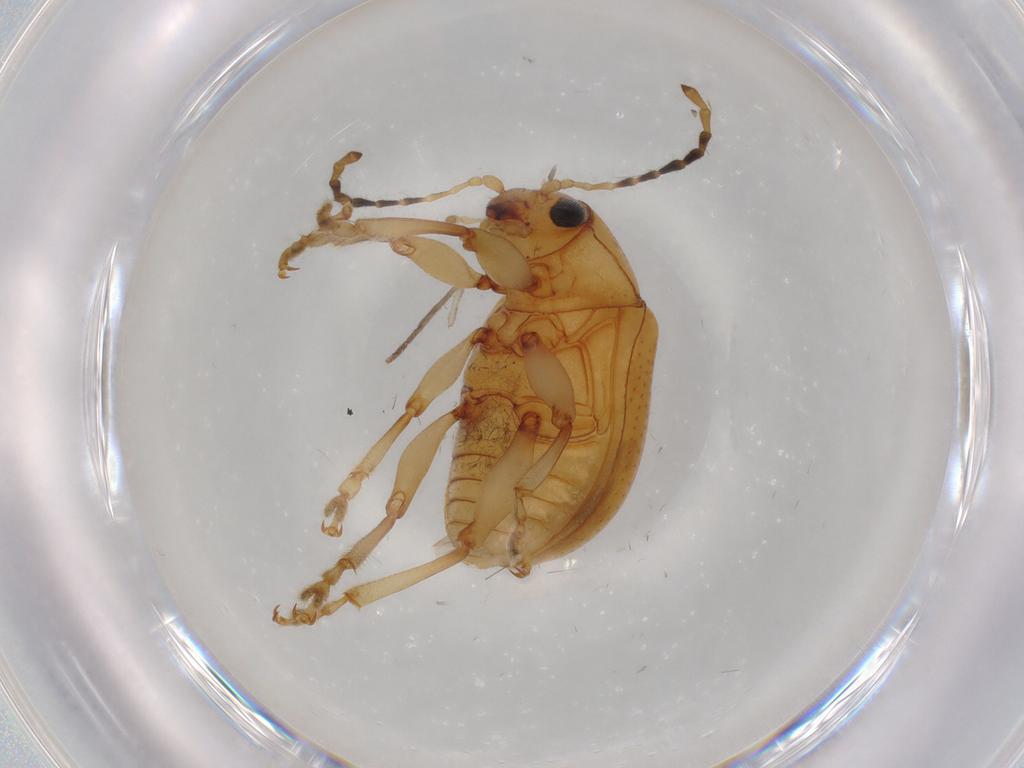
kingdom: Animalia
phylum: Arthropoda
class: Insecta
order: Coleoptera
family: Chrysomelidae
